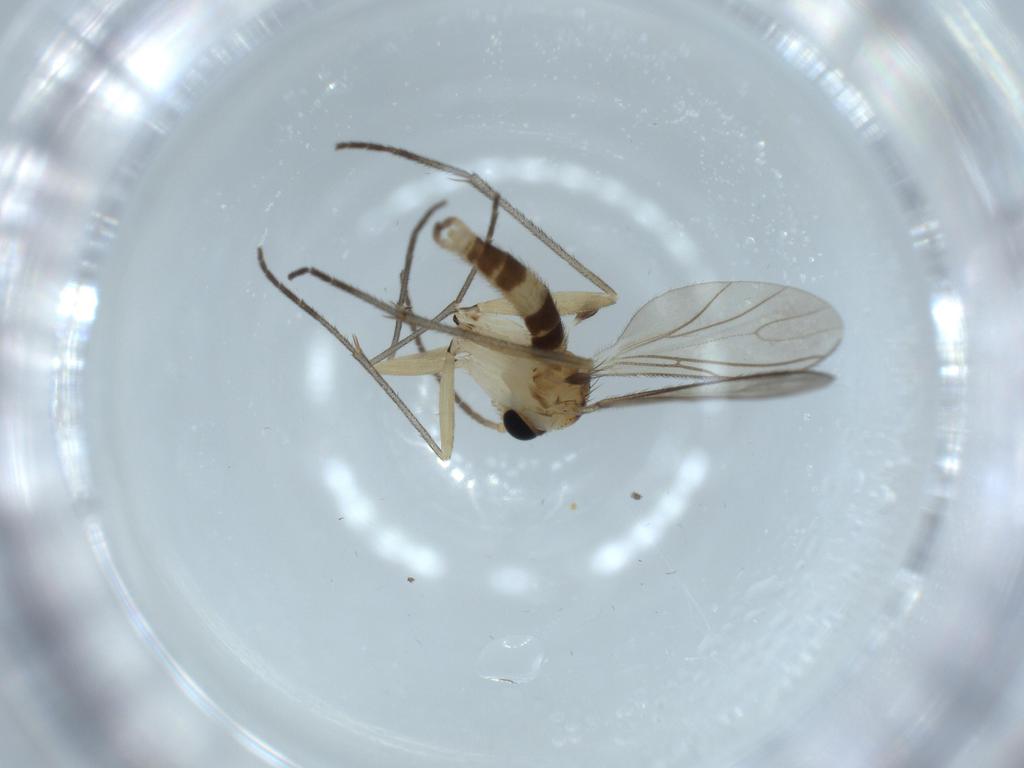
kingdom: Animalia
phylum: Arthropoda
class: Insecta
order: Diptera
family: Sciaridae
